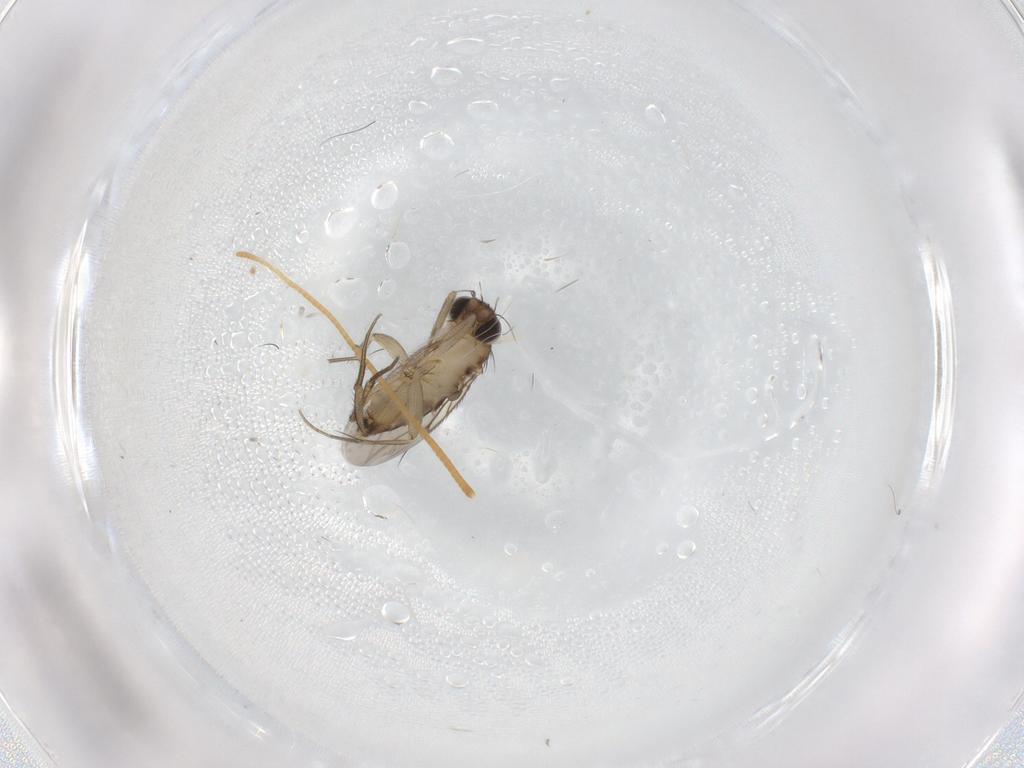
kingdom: Animalia
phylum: Arthropoda
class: Insecta
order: Diptera
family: Phoridae
